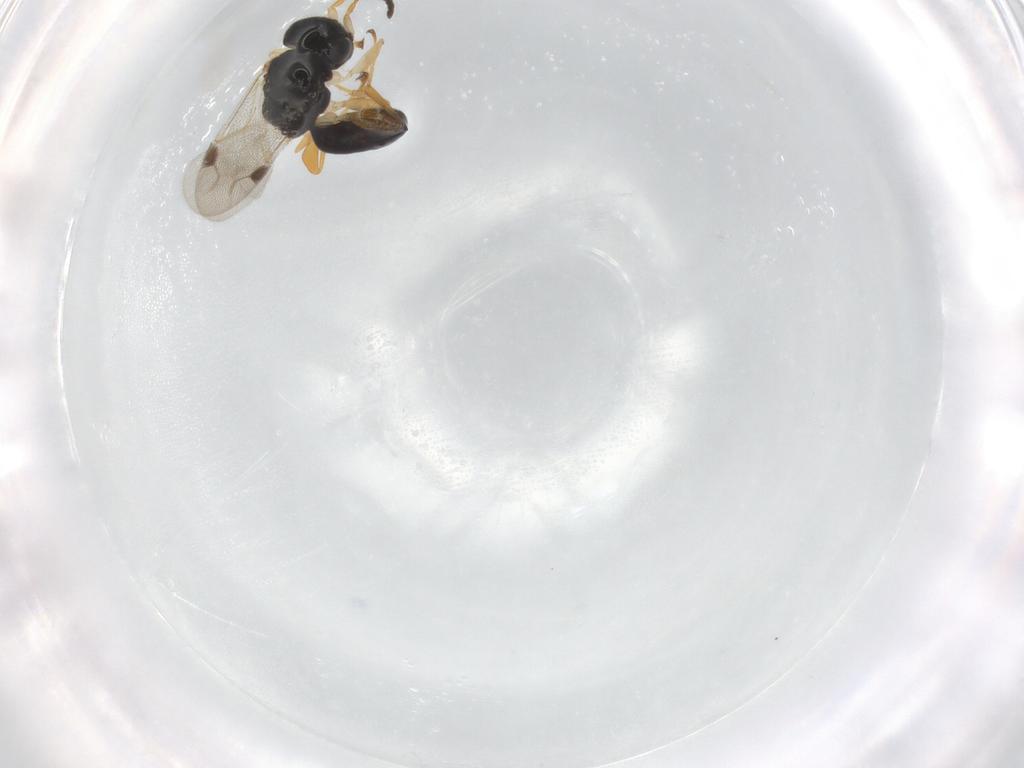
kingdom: Animalia
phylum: Arthropoda
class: Insecta
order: Hymenoptera
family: Dryinidae
